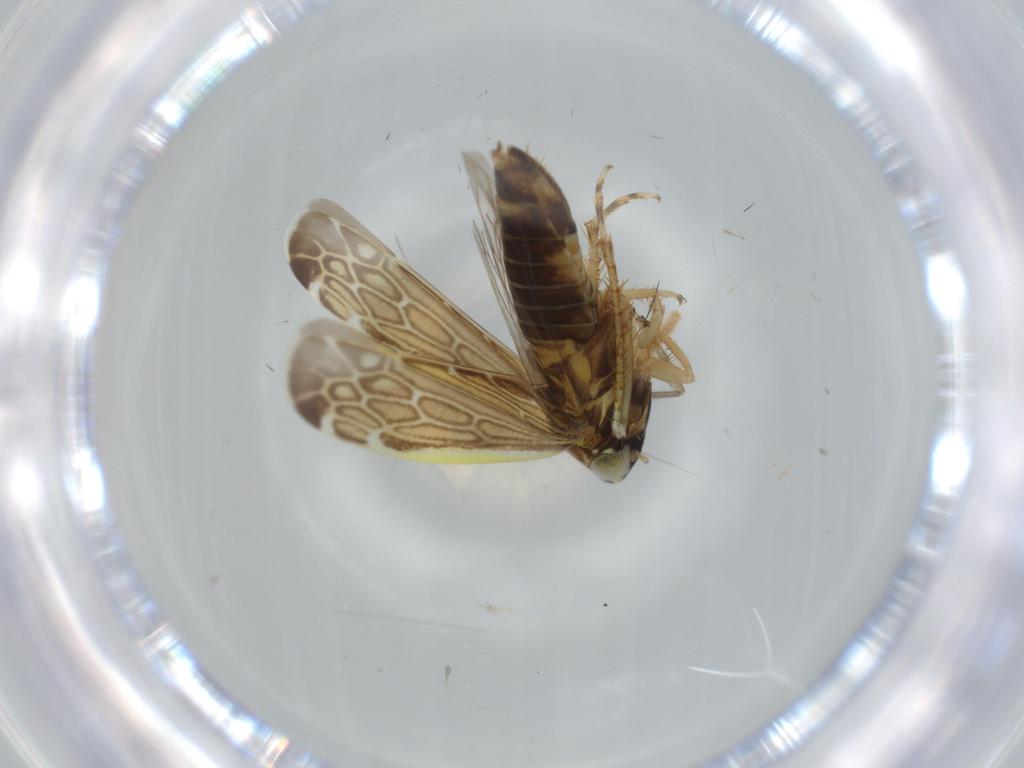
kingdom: Animalia
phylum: Arthropoda
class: Insecta
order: Hemiptera
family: Cicadellidae
